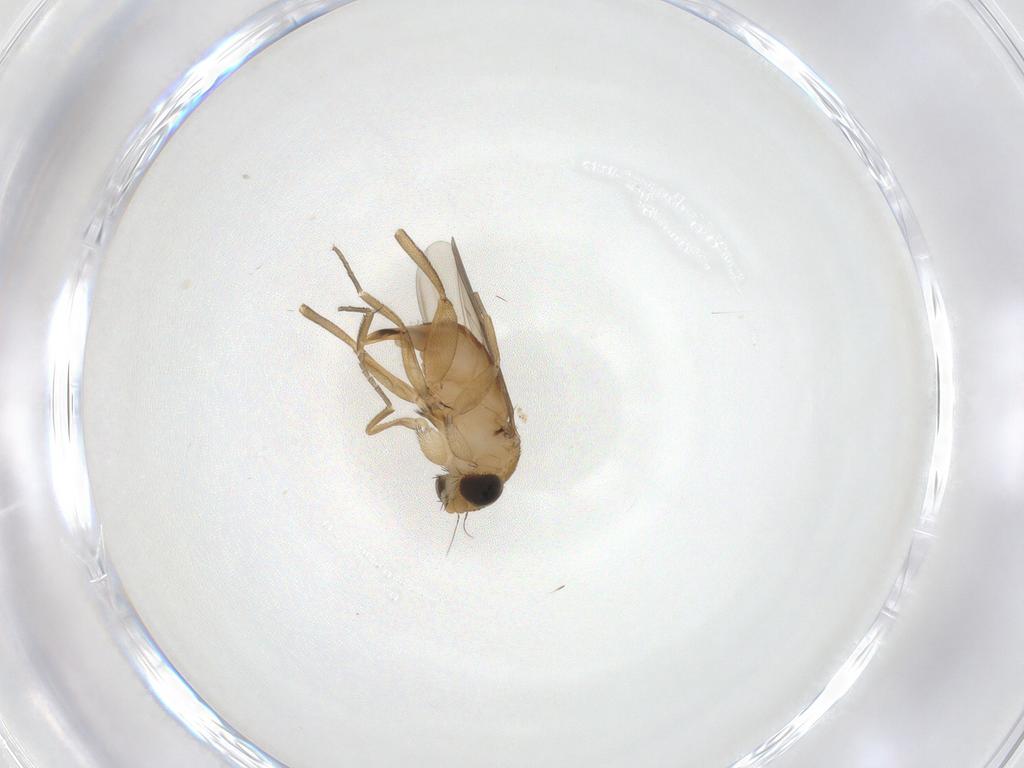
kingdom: Animalia
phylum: Arthropoda
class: Insecta
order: Diptera
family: Phoridae
